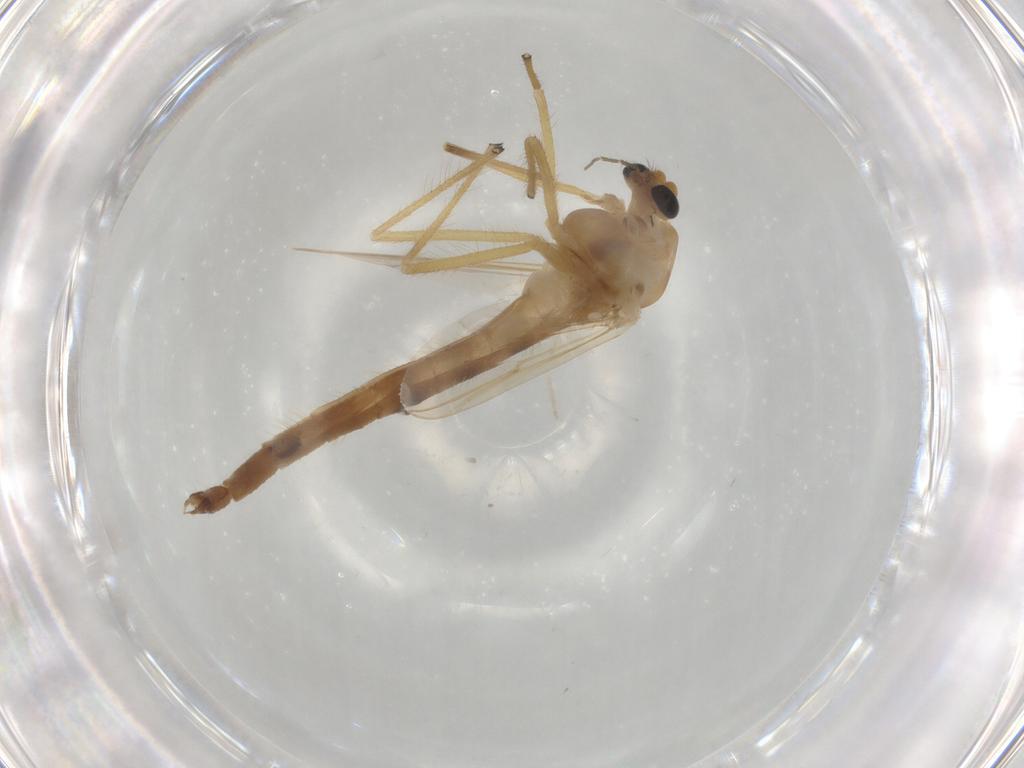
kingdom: Animalia
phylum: Arthropoda
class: Insecta
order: Diptera
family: Chironomidae
